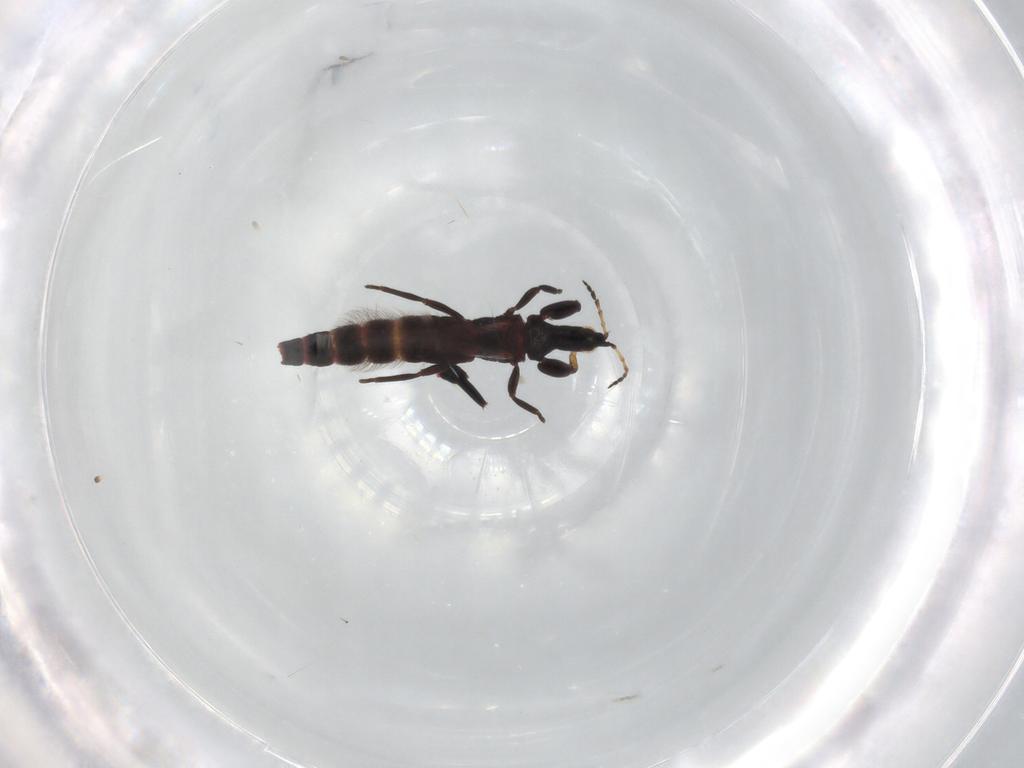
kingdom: Animalia
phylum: Arthropoda
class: Insecta
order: Thysanoptera
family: Phlaeothripidae
